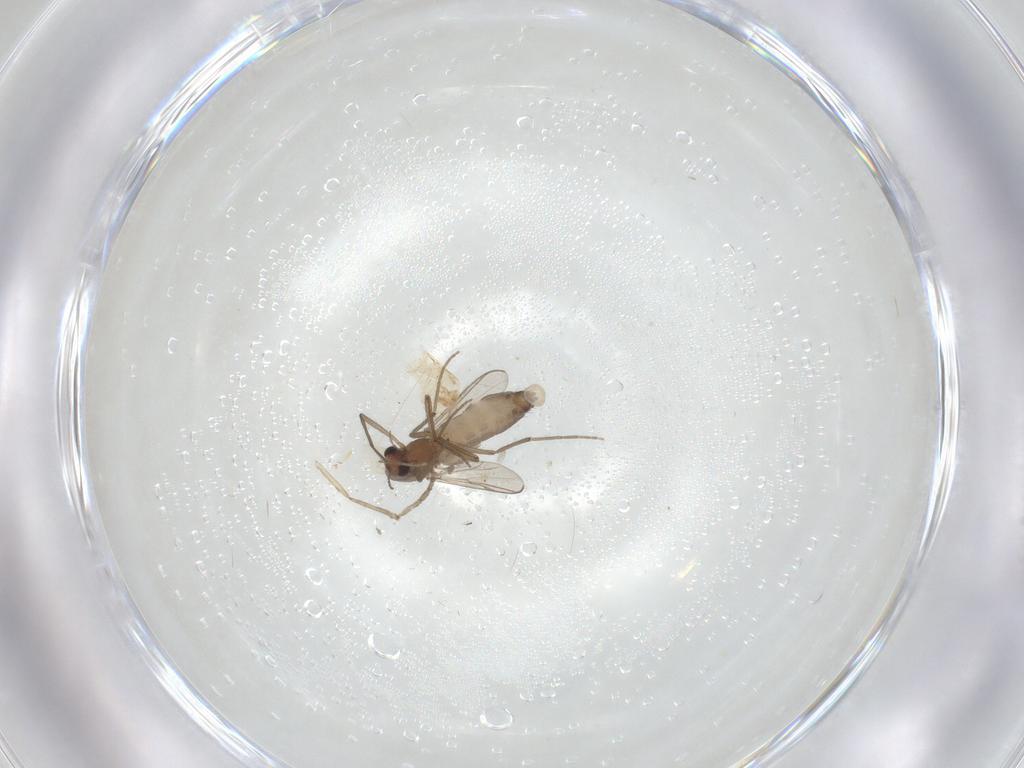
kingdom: Animalia
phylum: Arthropoda
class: Insecta
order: Diptera
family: Chironomidae
